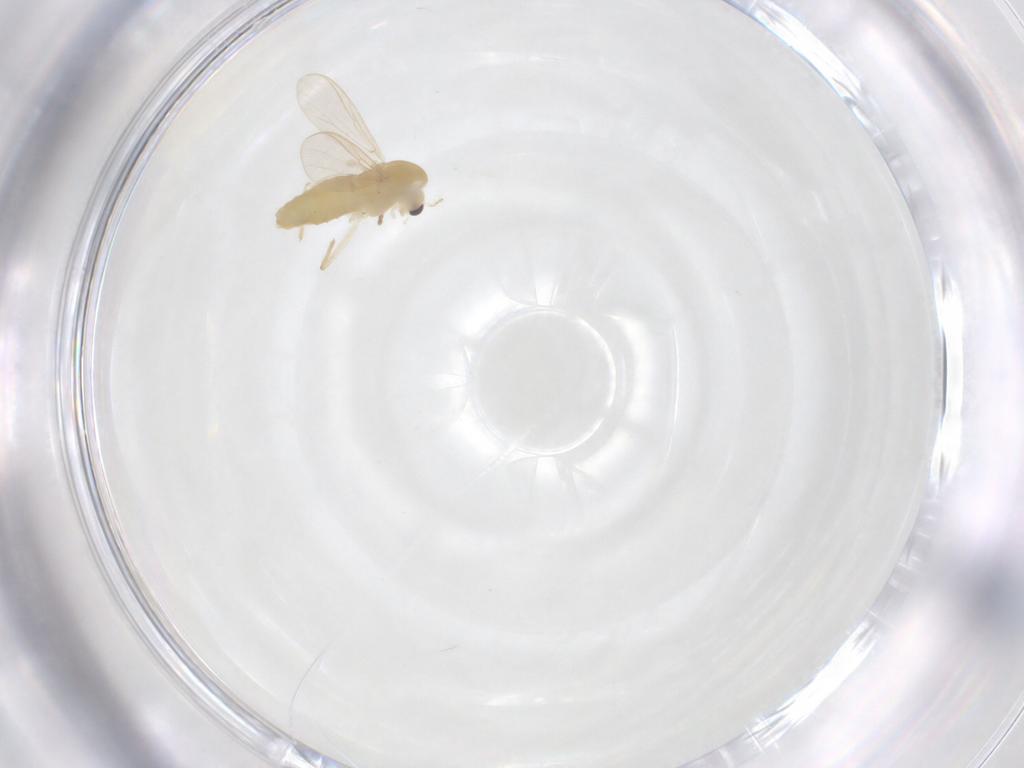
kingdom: Animalia
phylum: Arthropoda
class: Insecta
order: Diptera
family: Chironomidae
